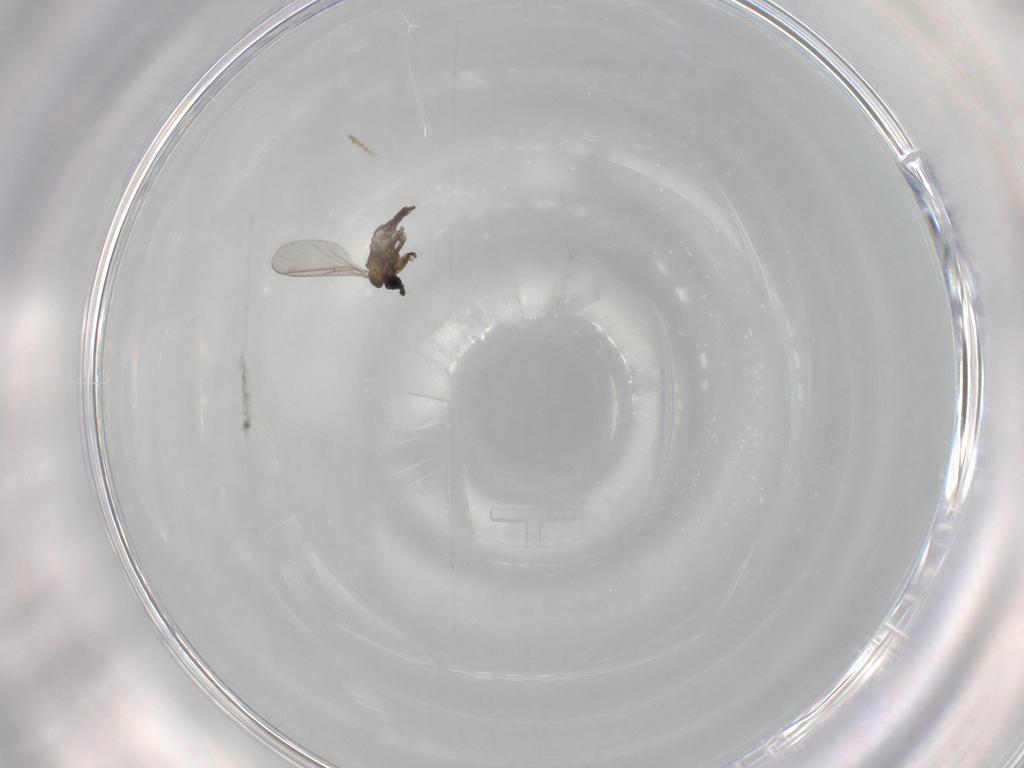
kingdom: Animalia
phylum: Arthropoda
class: Insecta
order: Diptera
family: Sciaridae
